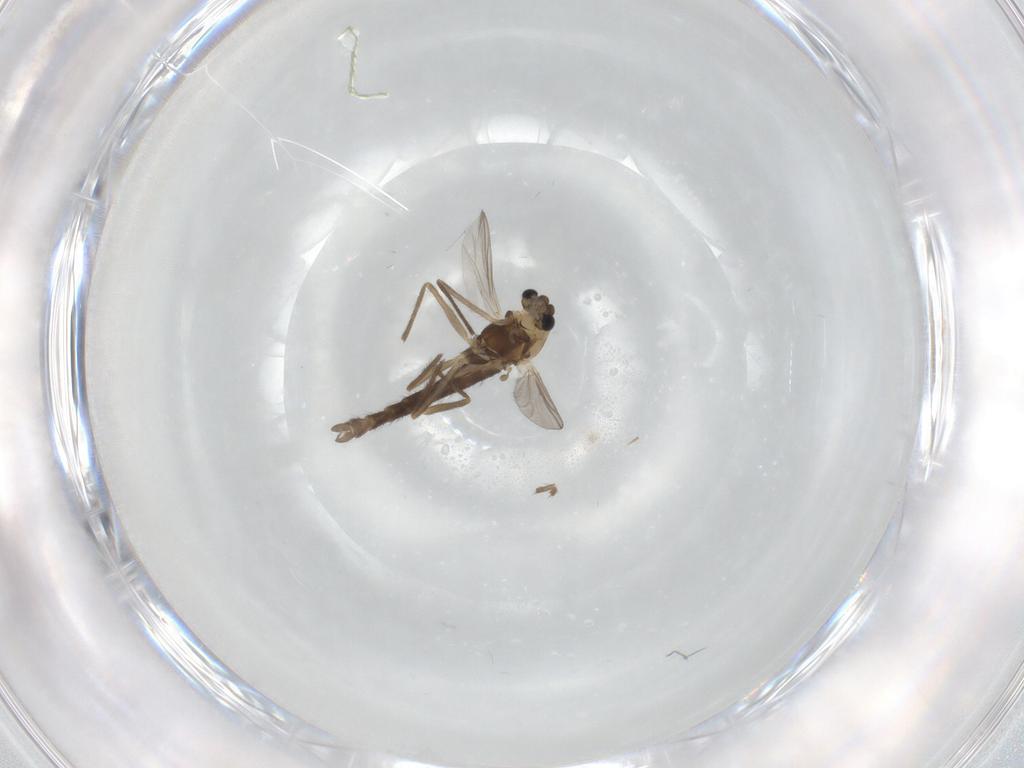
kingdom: Animalia
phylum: Arthropoda
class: Insecta
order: Diptera
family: Chironomidae
